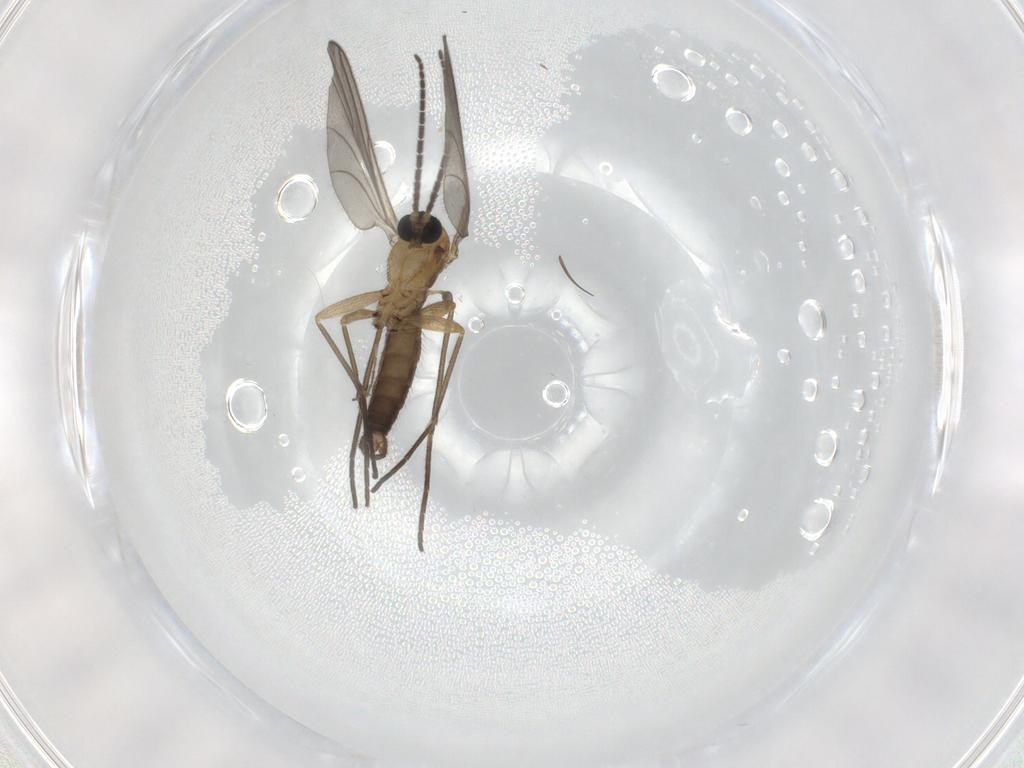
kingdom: Animalia
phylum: Arthropoda
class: Insecta
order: Diptera
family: Sciaridae
